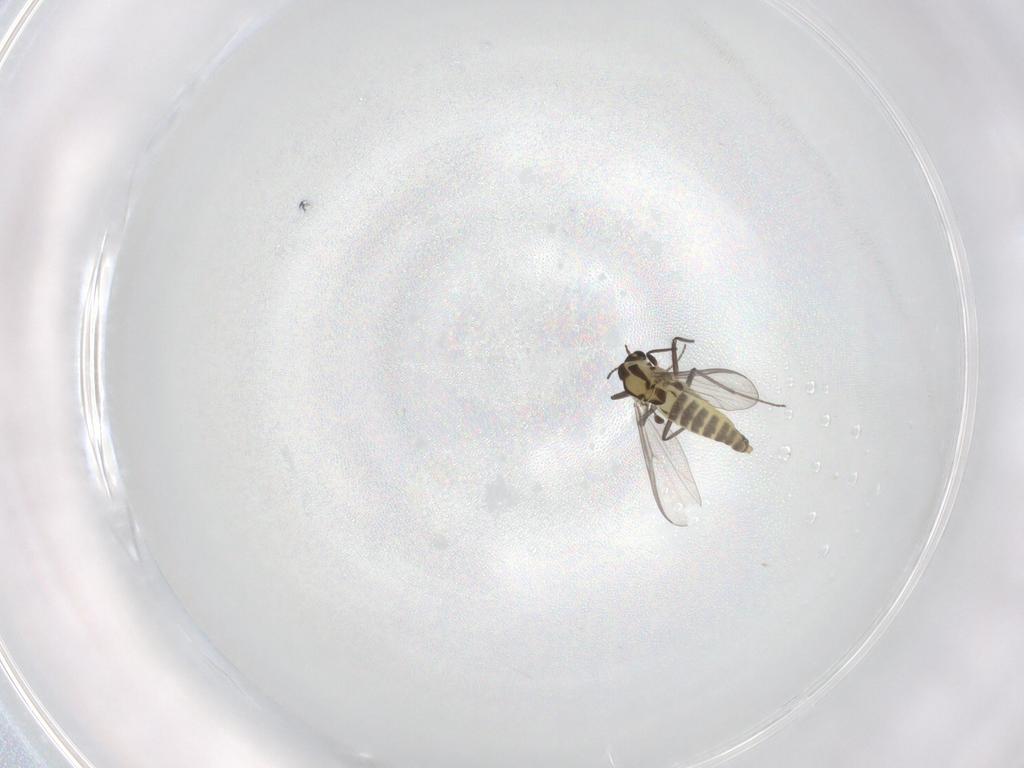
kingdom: Animalia
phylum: Arthropoda
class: Insecta
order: Diptera
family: Chironomidae
